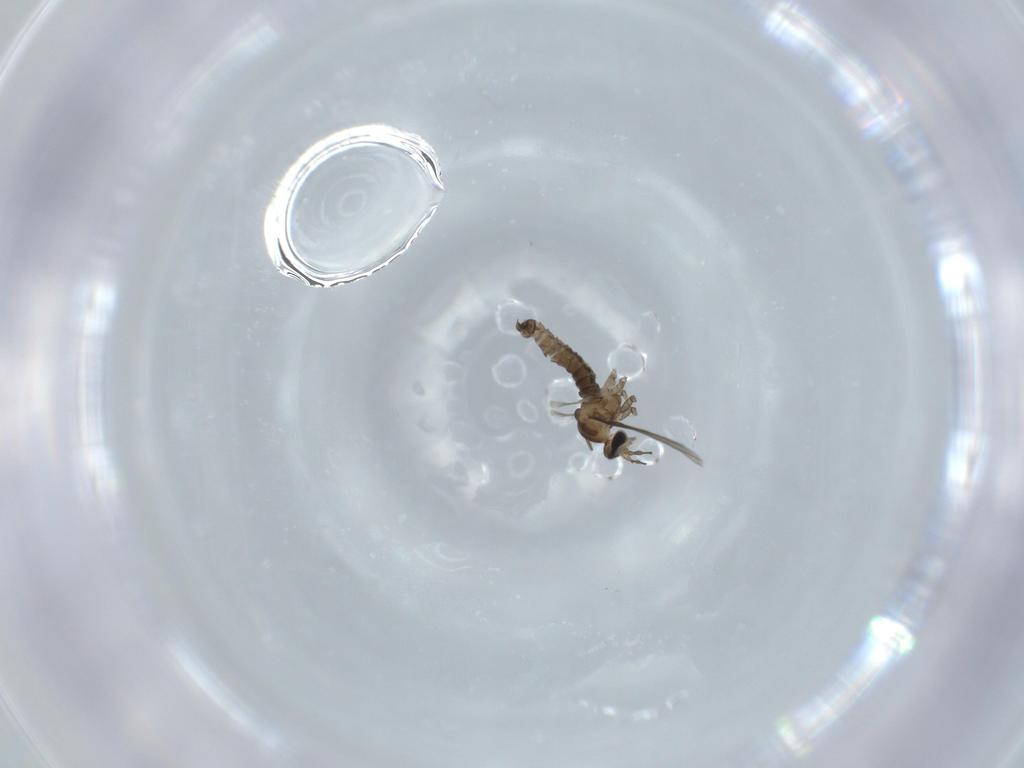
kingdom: Animalia
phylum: Arthropoda
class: Insecta
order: Diptera
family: Cecidomyiidae
